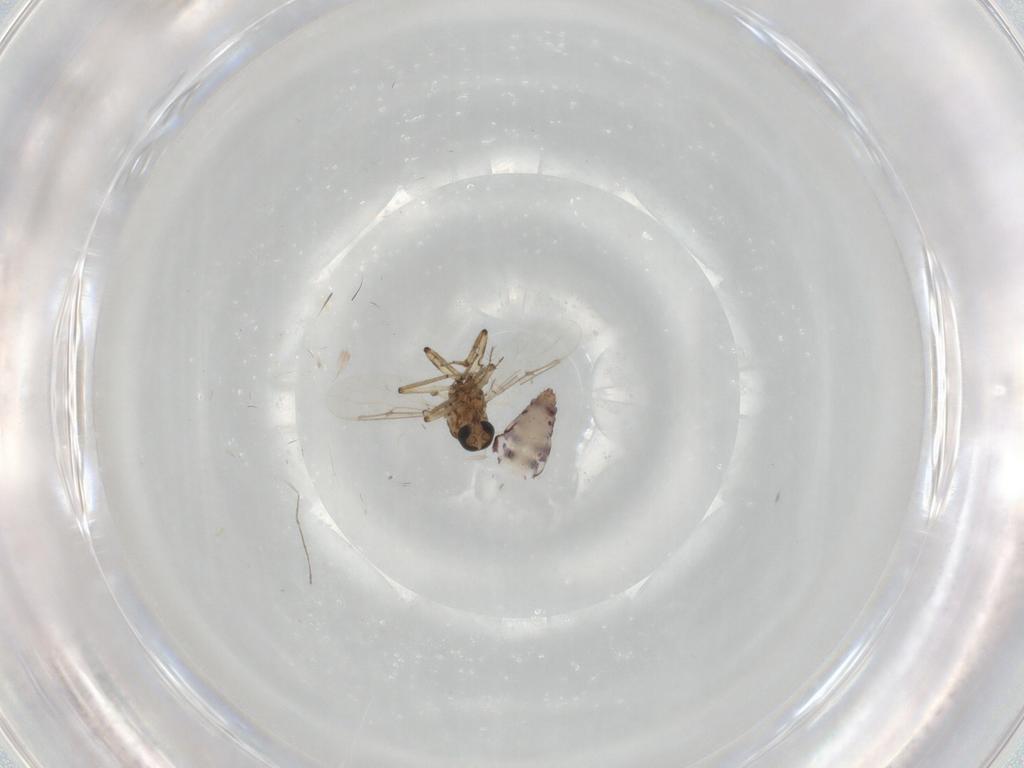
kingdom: Animalia
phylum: Arthropoda
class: Insecta
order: Diptera
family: Ceratopogonidae
